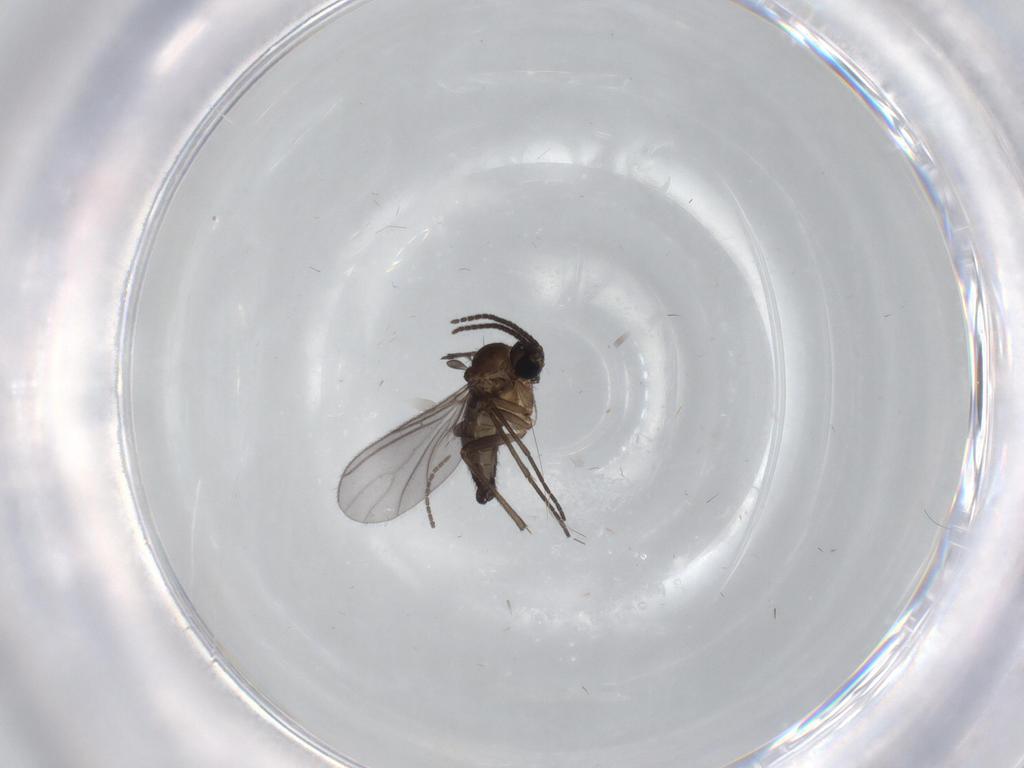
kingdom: Animalia
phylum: Arthropoda
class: Insecta
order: Diptera
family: Sciaridae
